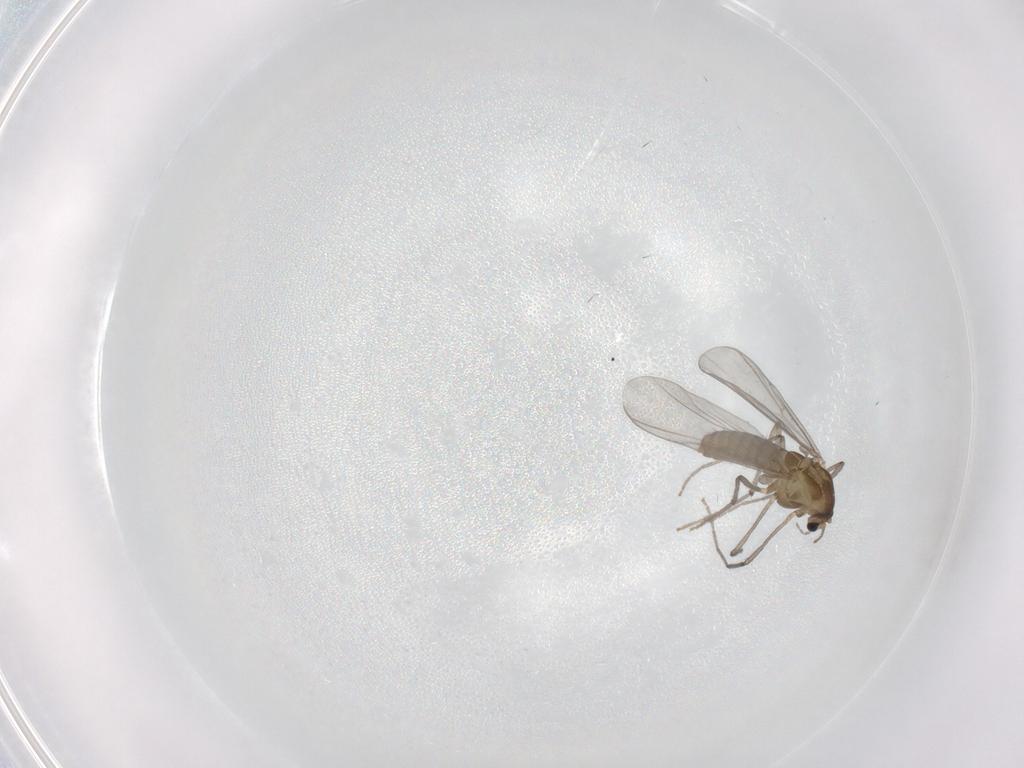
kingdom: Animalia
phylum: Arthropoda
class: Insecta
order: Diptera
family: Chironomidae
